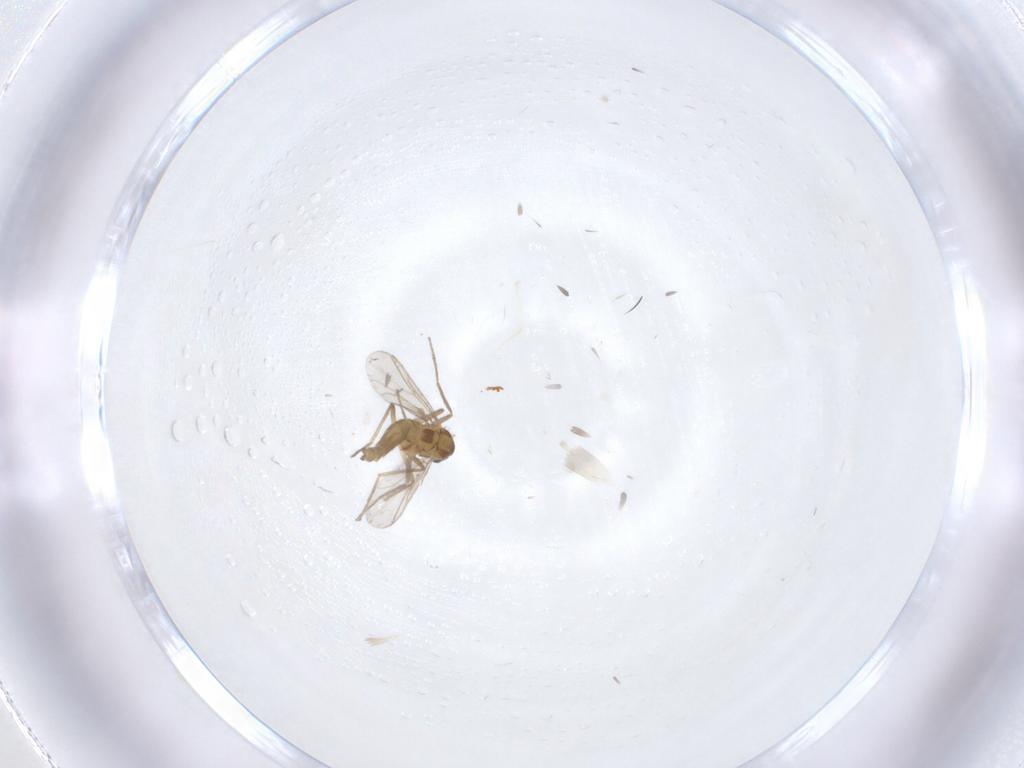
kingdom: Animalia
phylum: Arthropoda
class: Insecta
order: Diptera
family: Chironomidae
